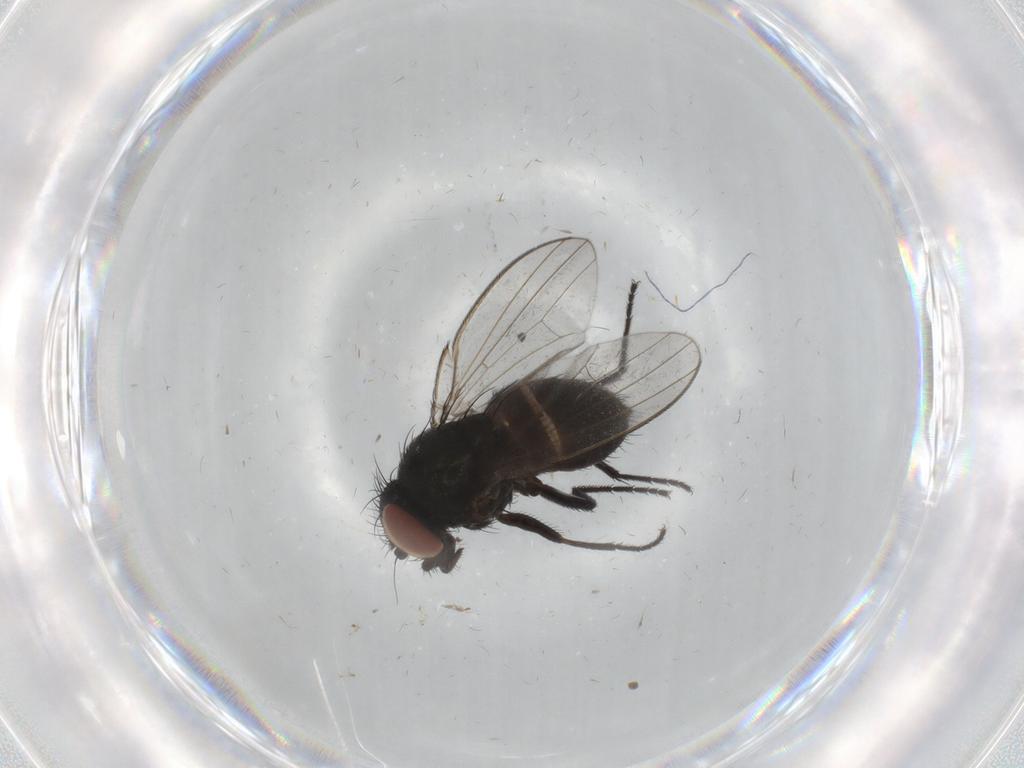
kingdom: Animalia
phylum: Arthropoda
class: Insecta
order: Diptera
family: Milichiidae
